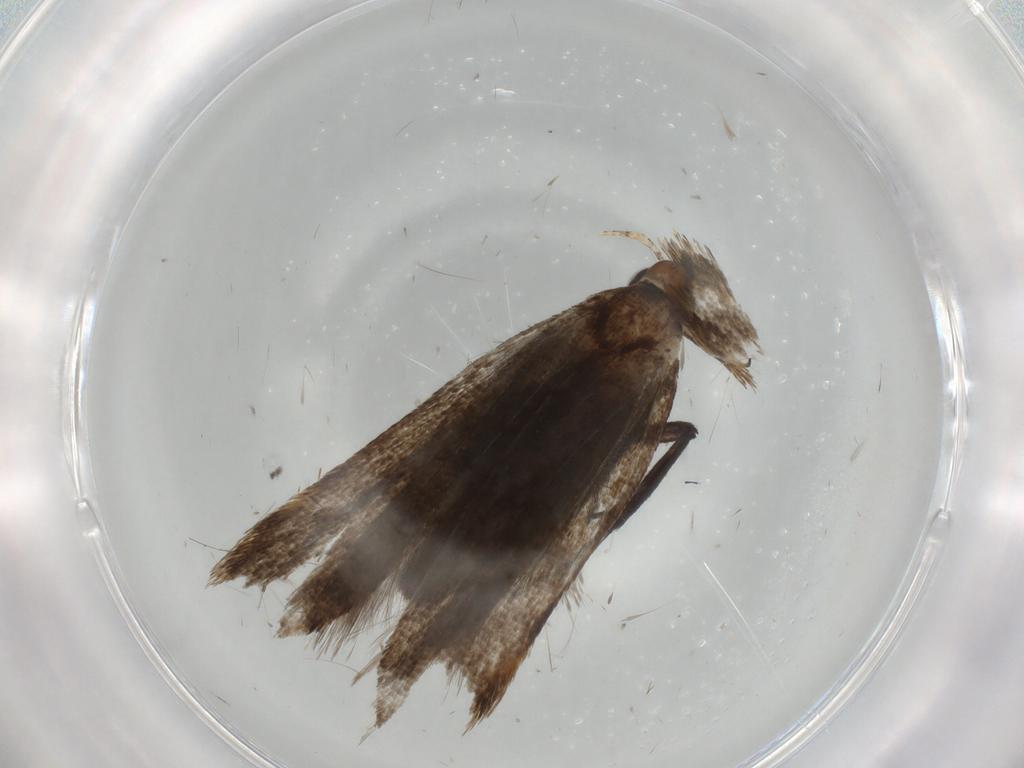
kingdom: Animalia
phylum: Arthropoda
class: Insecta
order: Lepidoptera
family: Gelechiidae
